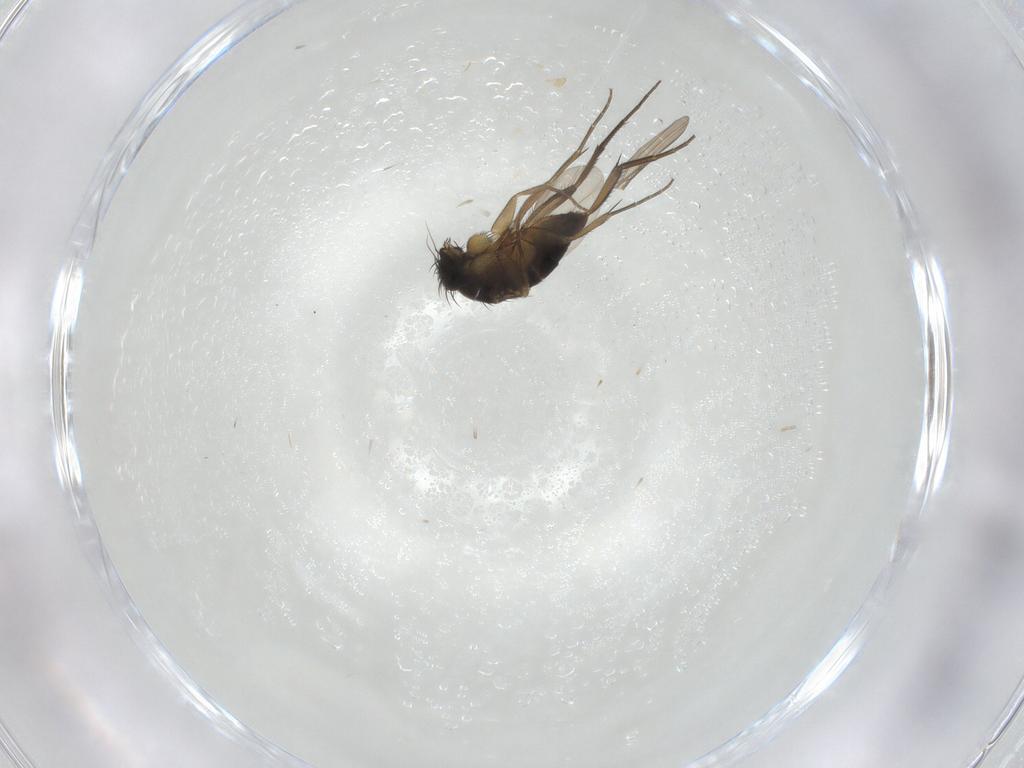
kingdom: Animalia
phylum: Arthropoda
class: Insecta
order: Diptera
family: Phoridae
